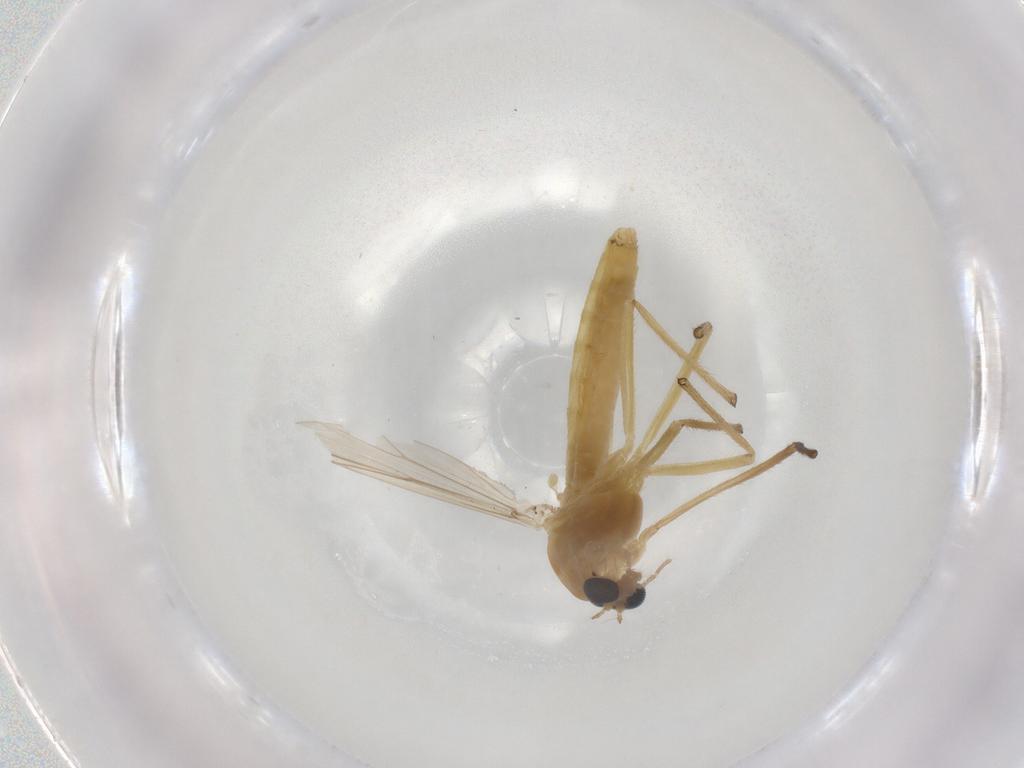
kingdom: Animalia
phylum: Arthropoda
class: Insecta
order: Diptera
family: Chironomidae
